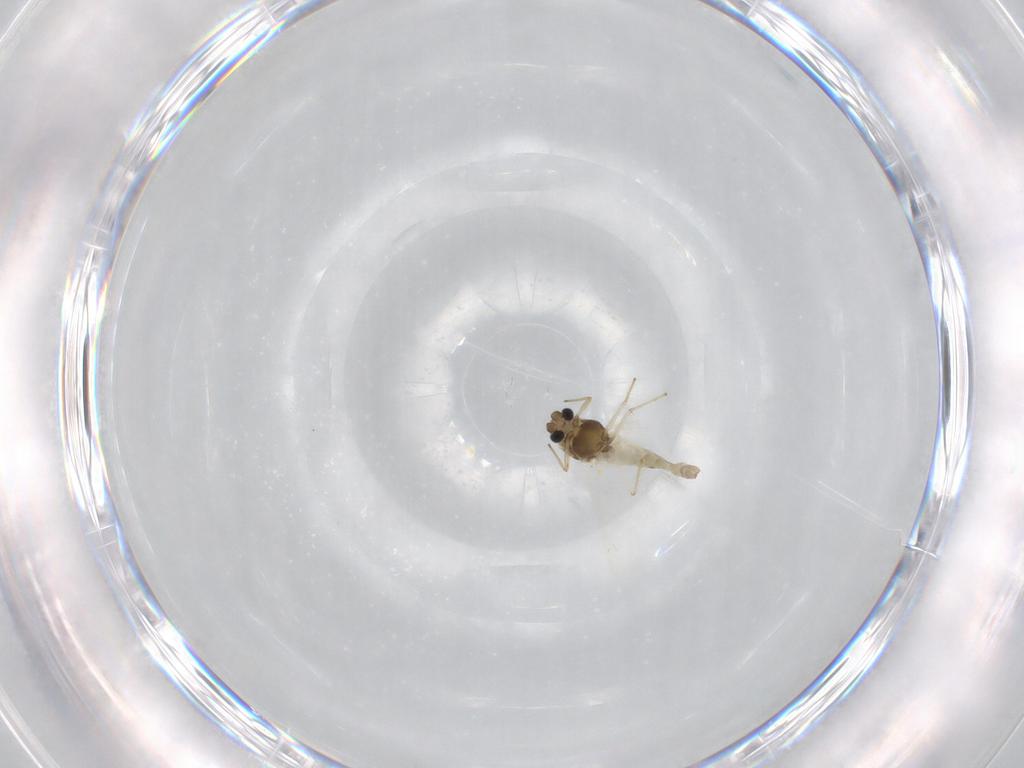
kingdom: Animalia
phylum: Arthropoda
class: Insecta
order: Diptera
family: Chironomidae
